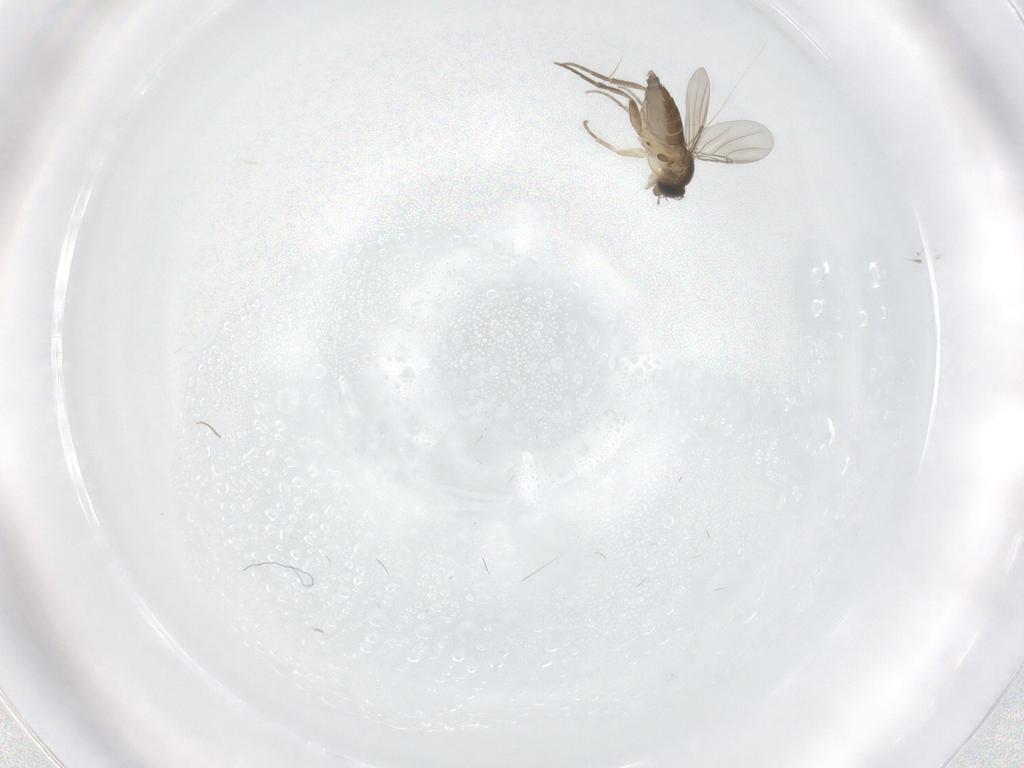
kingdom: Animalia
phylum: Arthropoda
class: Insecta
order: Diptera
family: Phoridae
